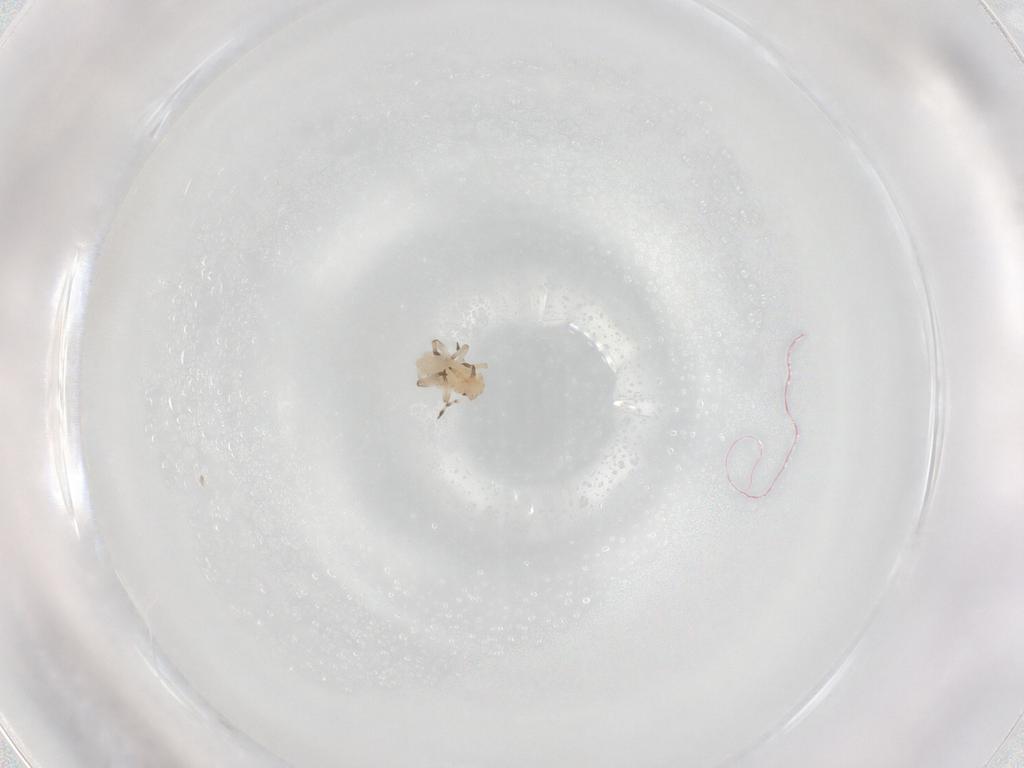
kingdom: Animalia
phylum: Arthropoda
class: Insecta
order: Hemiptera
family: Aphididae
